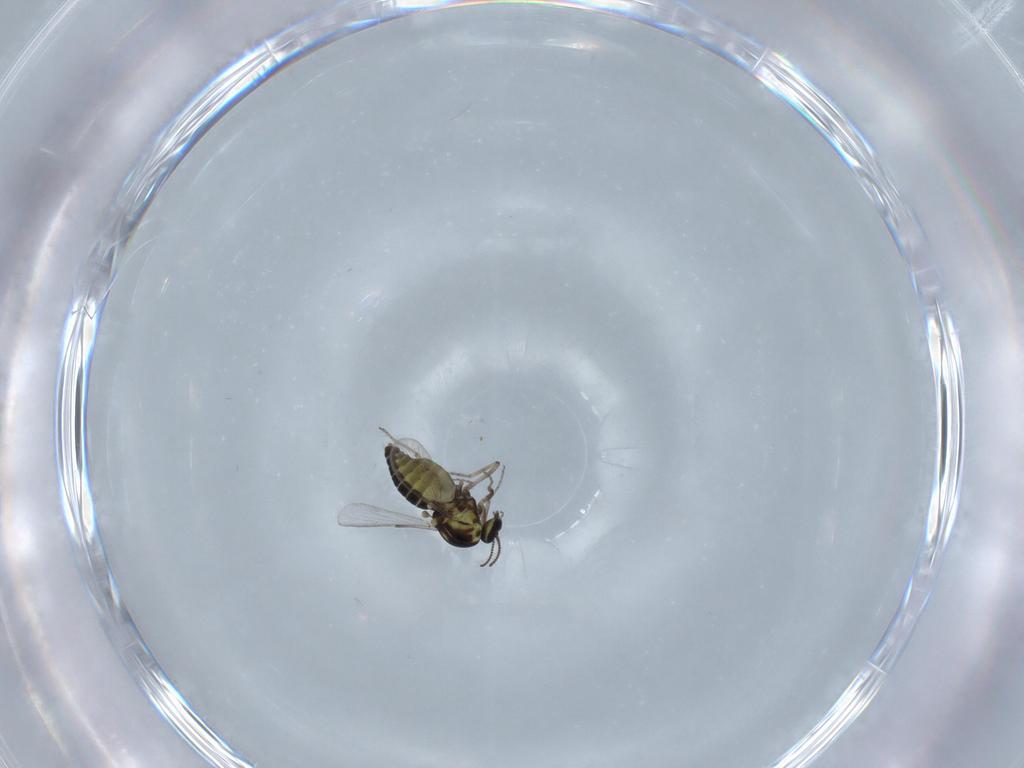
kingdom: Animalia
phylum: Arthropoda
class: Insecta
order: Diptera
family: Ceratopogonidae
